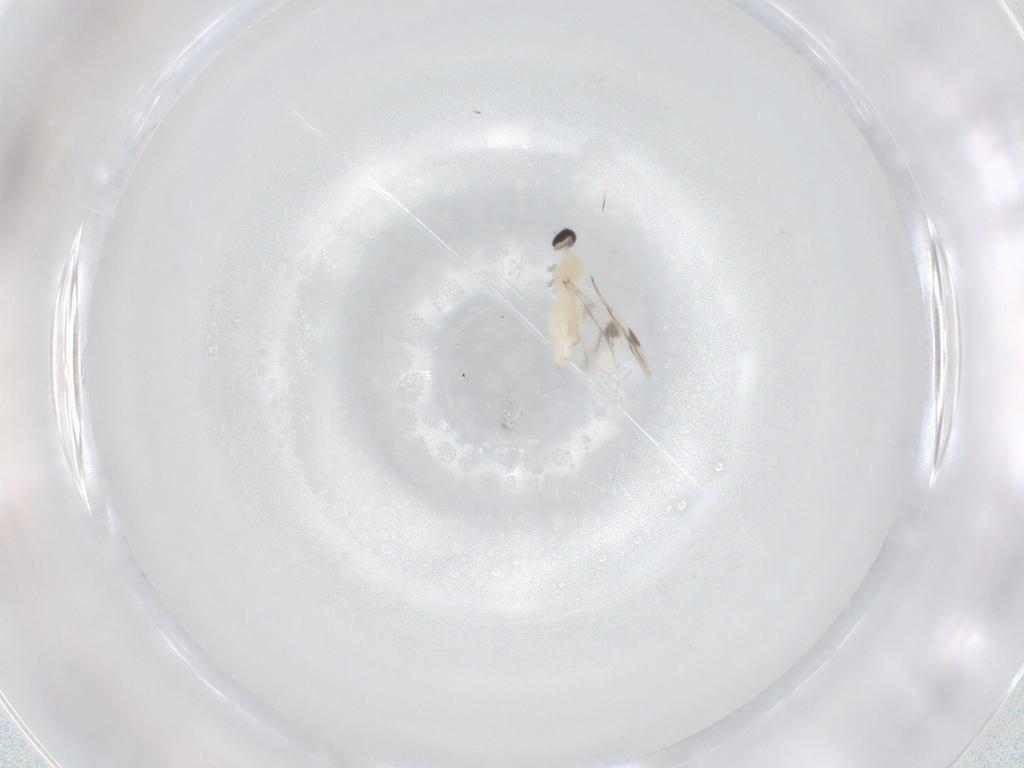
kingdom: Animalia
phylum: Arthropoda
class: Insecta
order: Diptera
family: Cecidomyiidae
